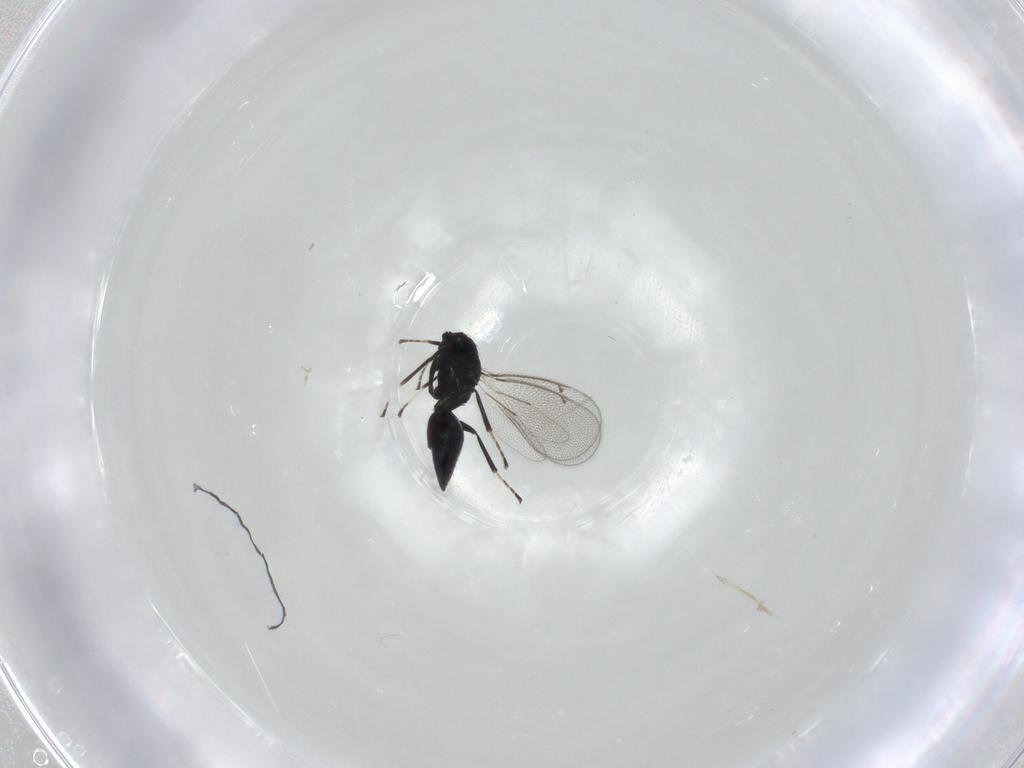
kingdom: Animalia
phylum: Arthropoda
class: Insecta
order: Hymenoptera
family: Eulophidae
